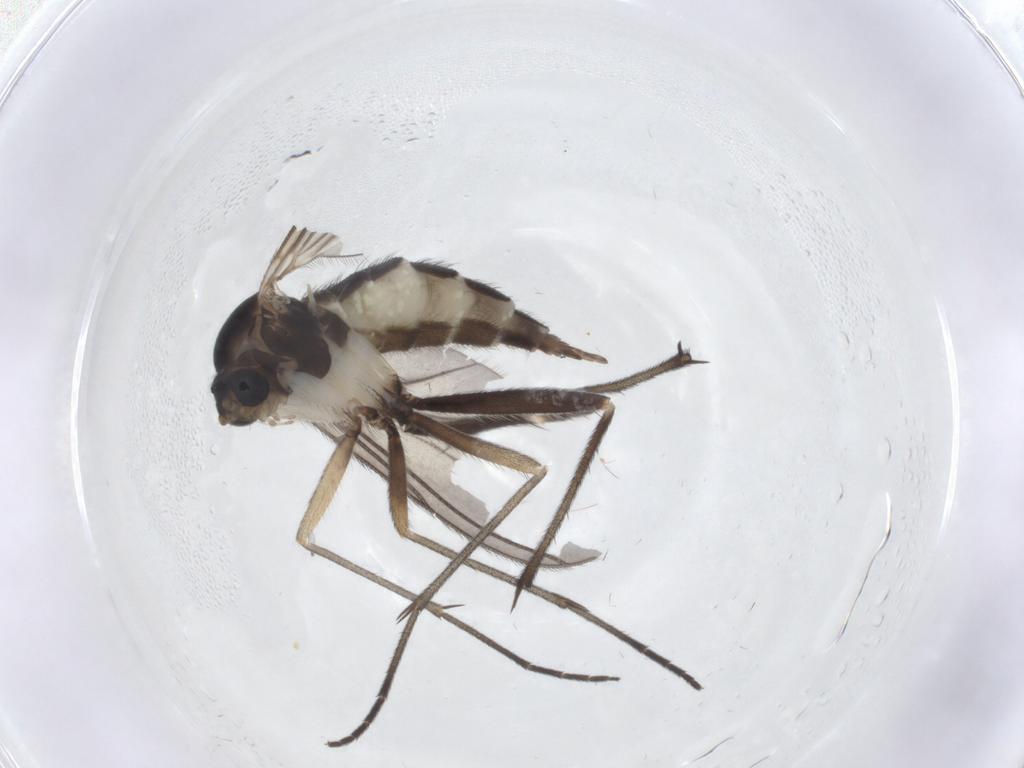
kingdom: Animalia
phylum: Arthropoda
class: Insecta
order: Diptera
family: Sciaridae
